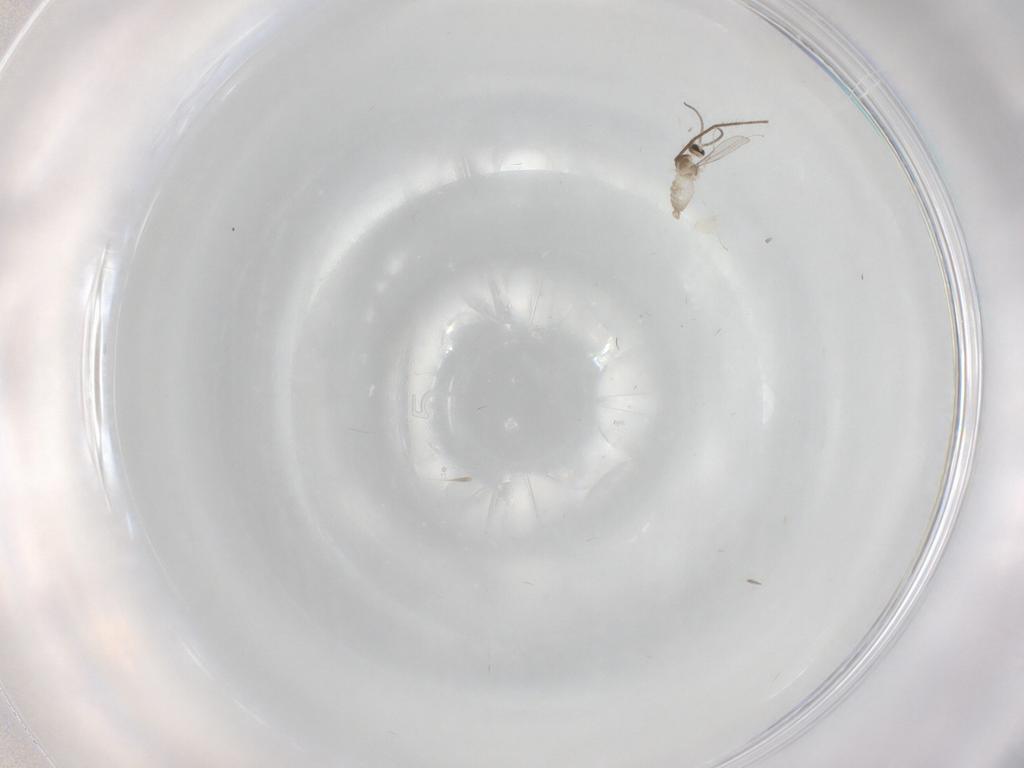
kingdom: Animalia
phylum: Arthropoda
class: Insecta
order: Diptera
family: Cecidomyiidae
